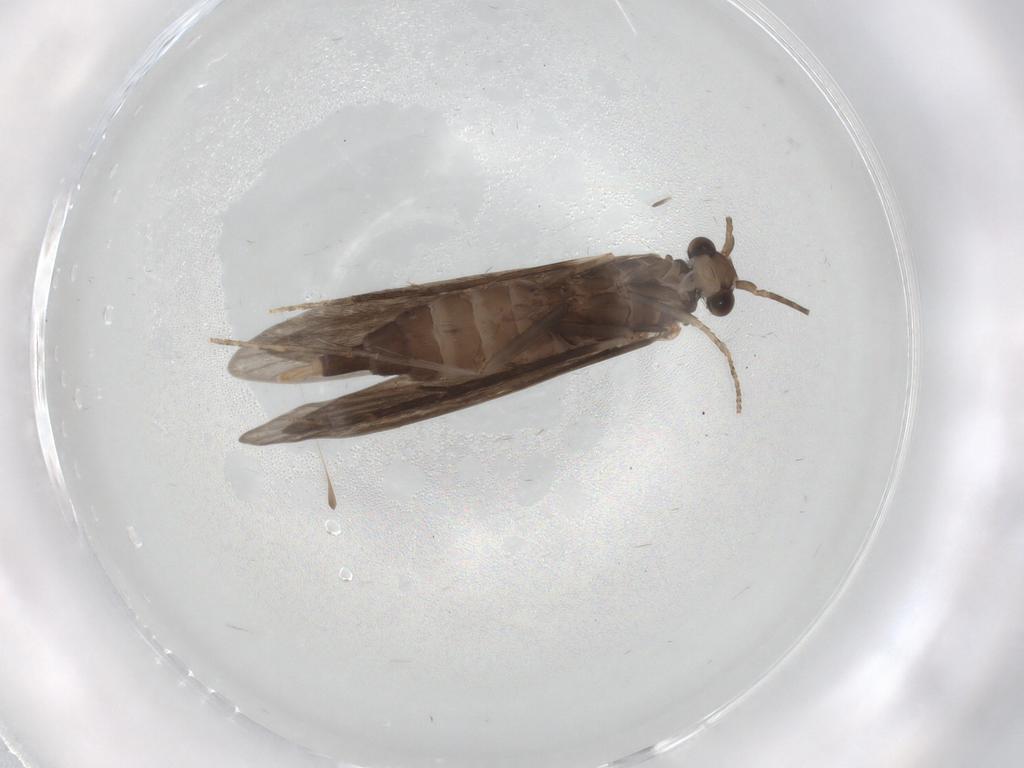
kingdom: Animalia
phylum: Arthropoda
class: Insecta
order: Trichoptera
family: Xiphocentronidae
